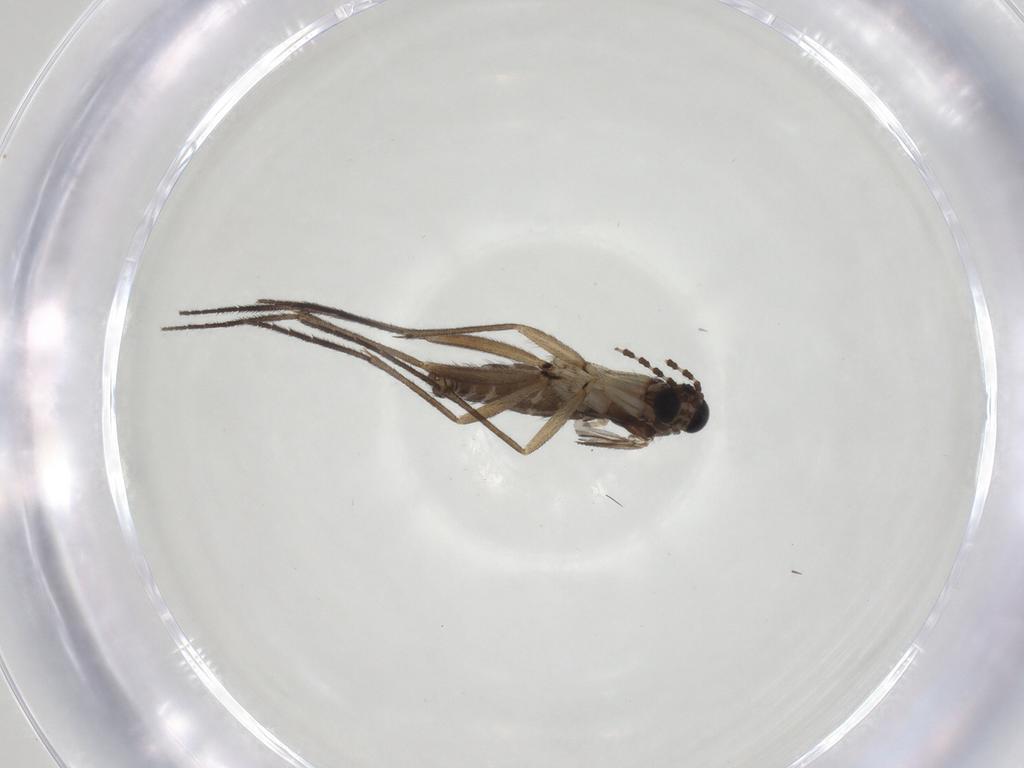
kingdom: Animalia
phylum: Arthropoda
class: Insecta
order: Diptera
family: Sciaridae
